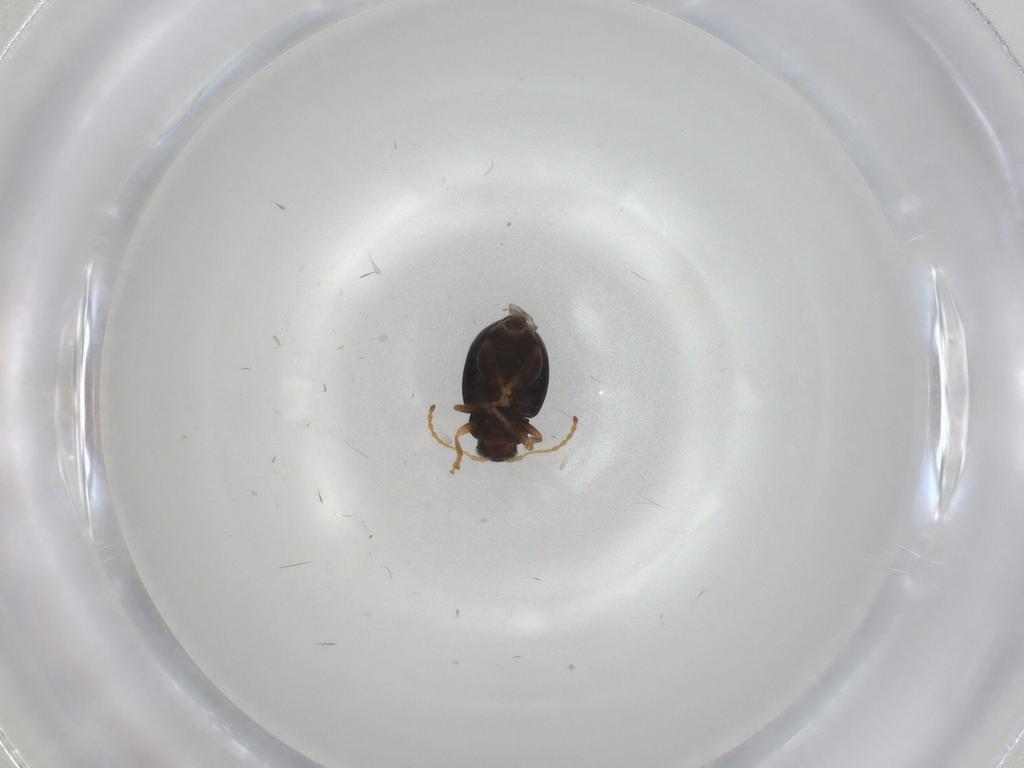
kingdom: Animalia
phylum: Arthropoda
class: Insecta
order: Coleoptera
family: Chrysomelidae
